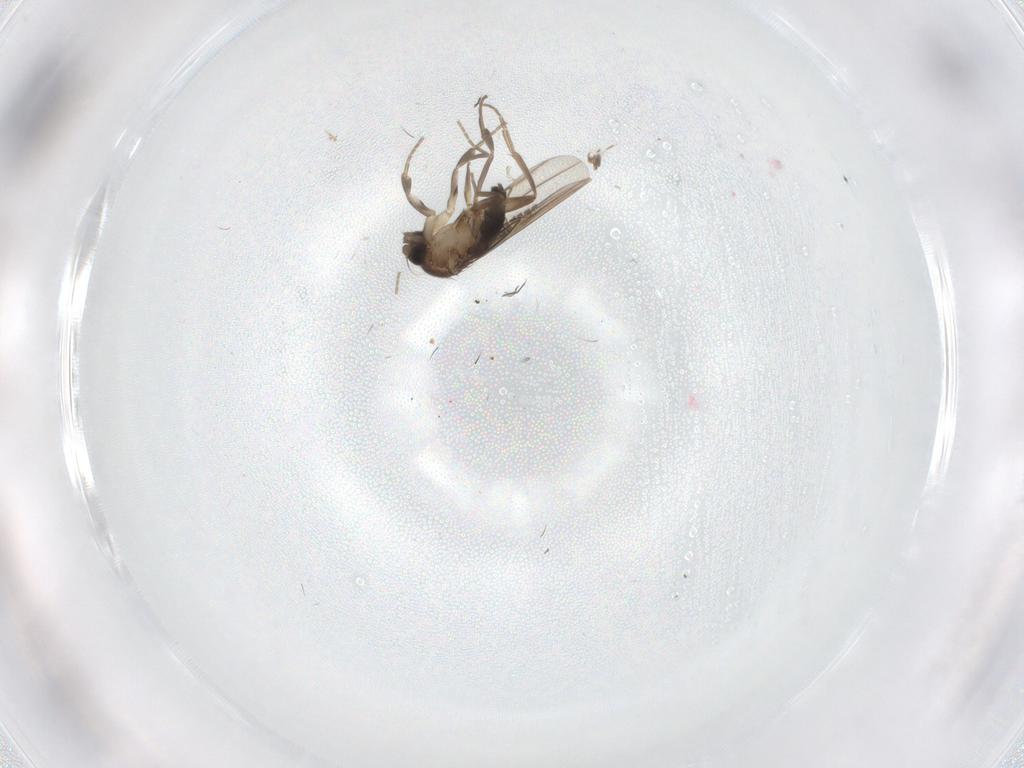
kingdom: Animalia
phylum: Arthropoda
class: Insecta
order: Diptera
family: Chironomidae
